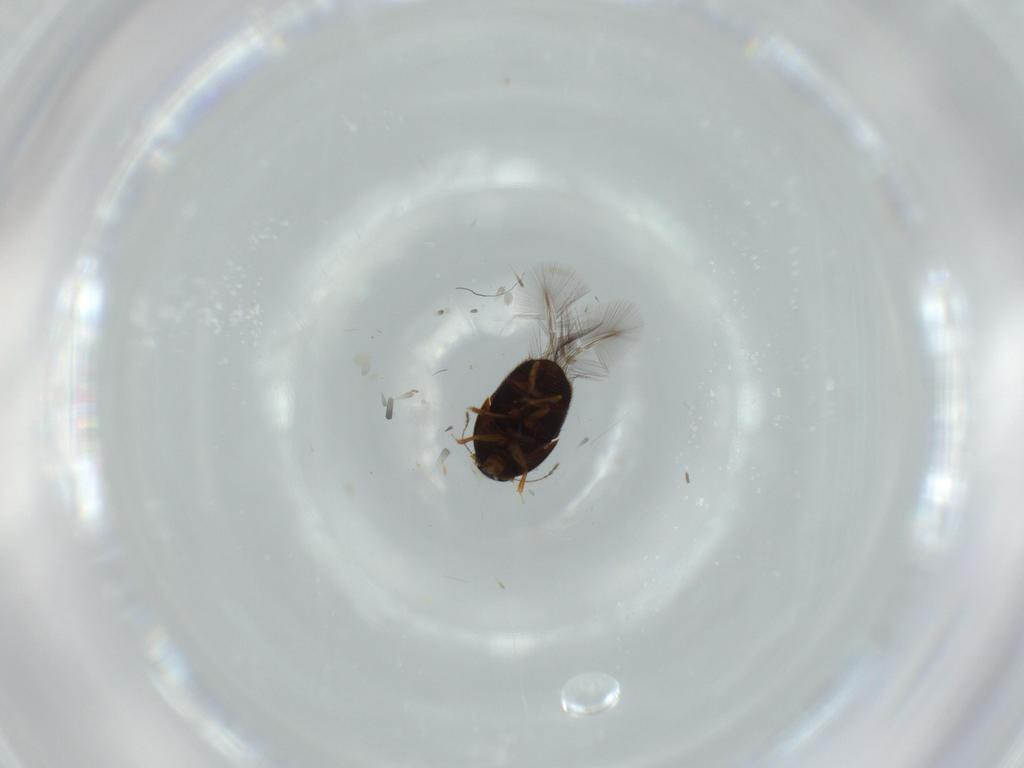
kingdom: Animalia
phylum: Arthropoda
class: Insecta
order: Coleoptera
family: Ptiliidae
